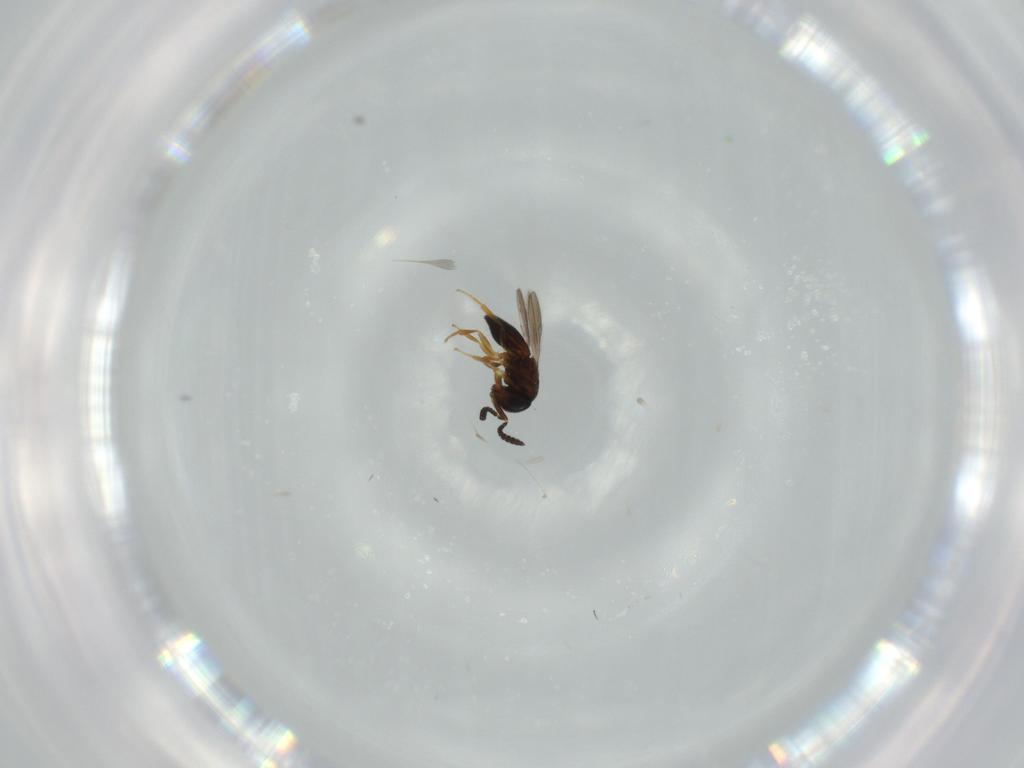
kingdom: Animalia
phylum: Arthropoda
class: Insecta
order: Hymenoptera
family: Scelionidae
